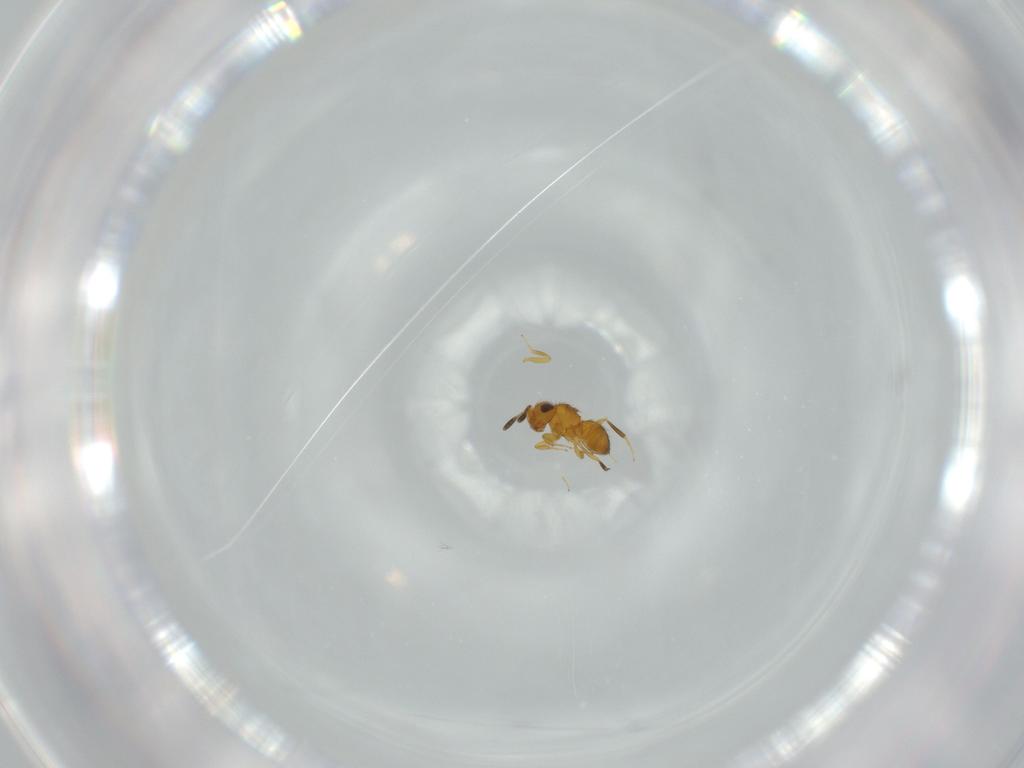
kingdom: Animalia
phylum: Arthropoda
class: Insecta
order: Hymenoptera
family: Scelionidae
